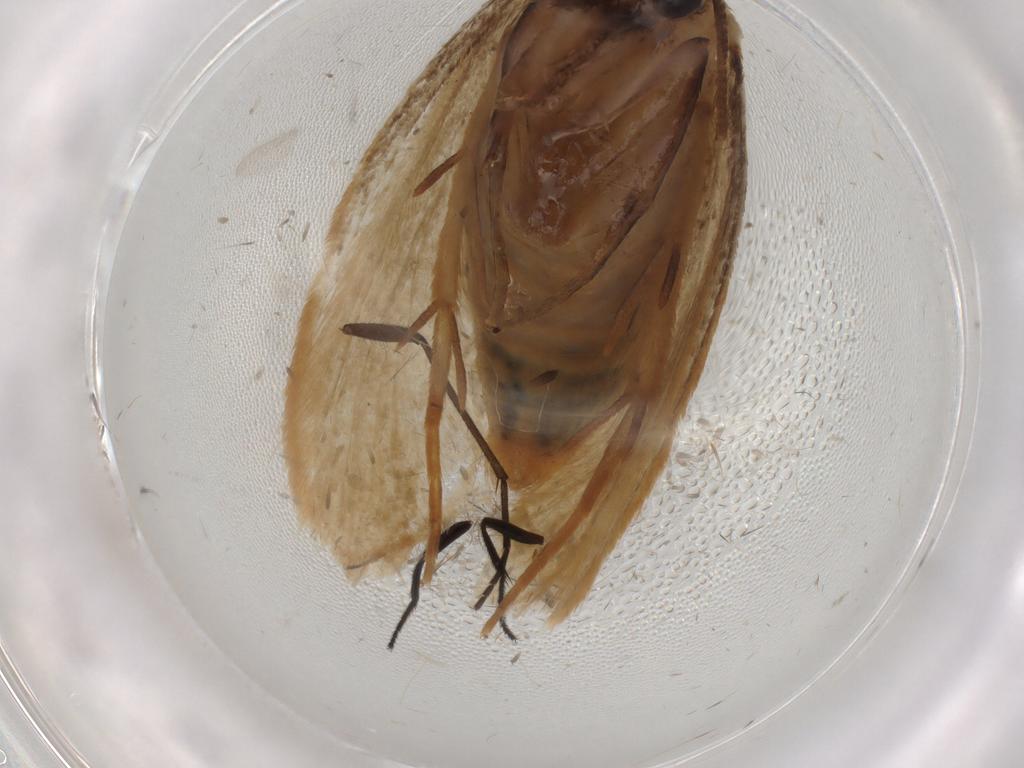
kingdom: Animalia
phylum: Arthropoda
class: Insecta
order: Lepidoptera
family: Tineidae
